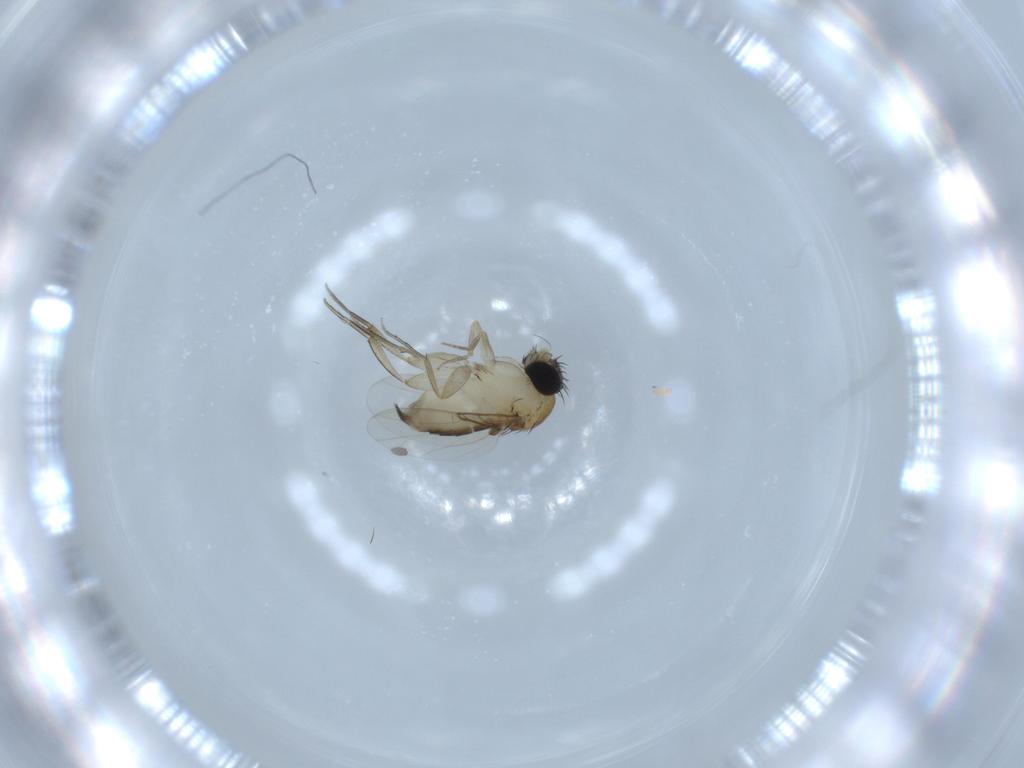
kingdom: Animalia
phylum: Arthropoda
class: Insecta
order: Diptera
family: Phoridae
